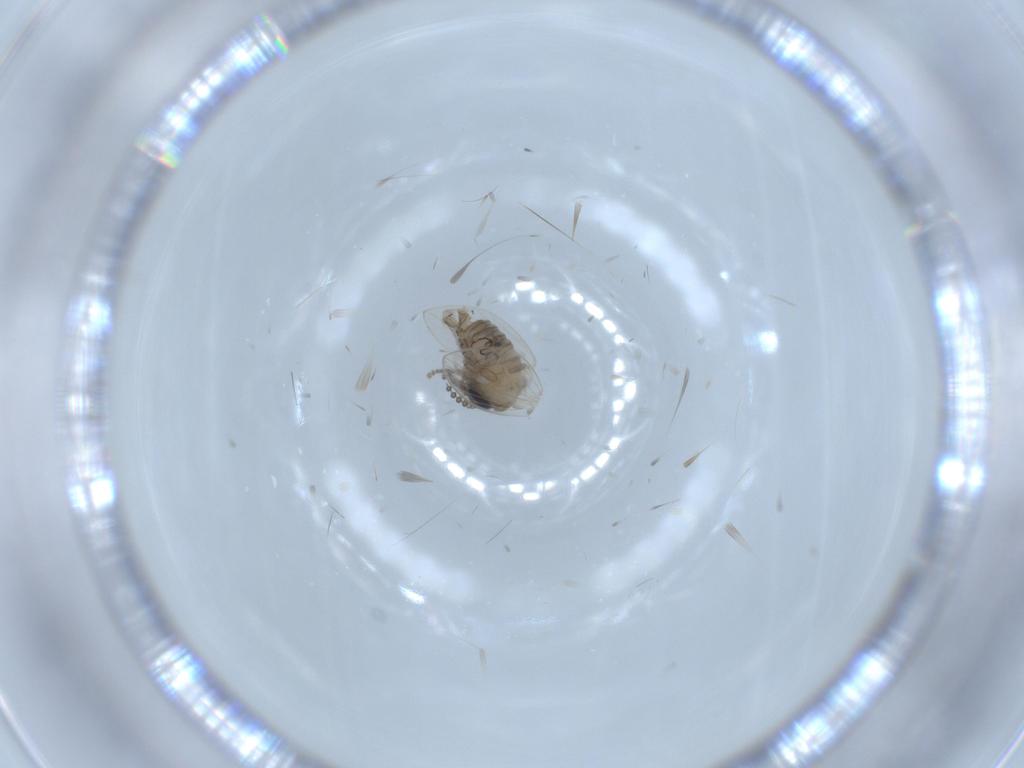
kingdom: Animalia
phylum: Arthropoda
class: Insecta
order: Diptera
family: Psychodidae
